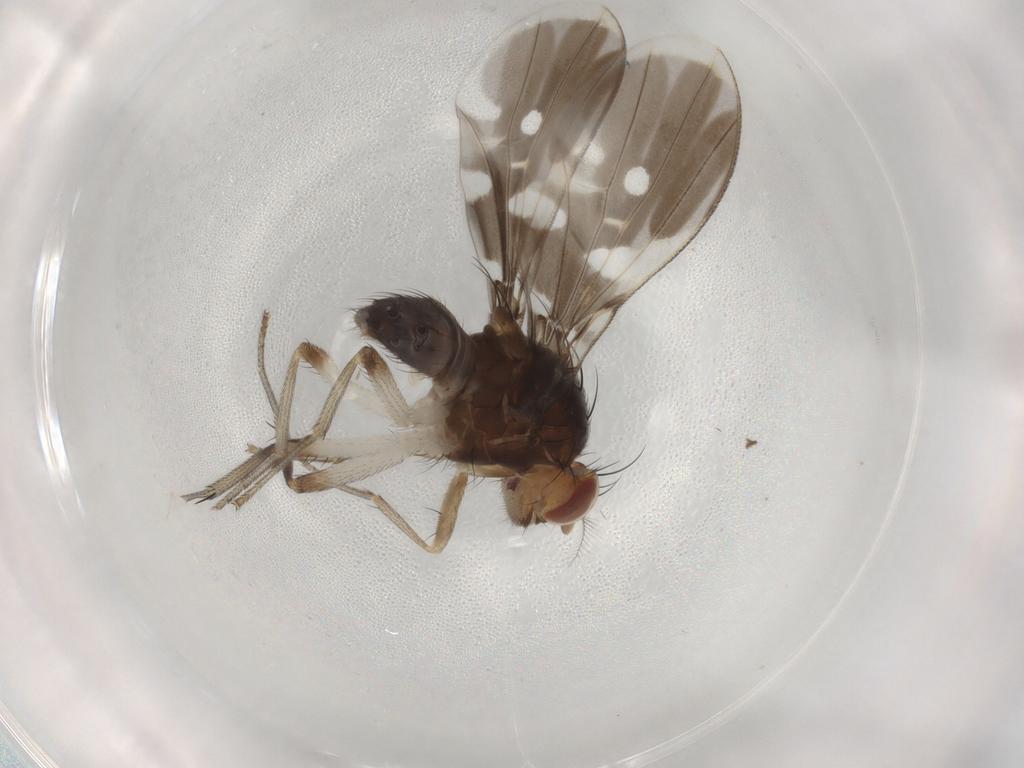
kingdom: Animalia
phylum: Arthropoda
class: Insecta
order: Diptera
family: Lauxaniidae
